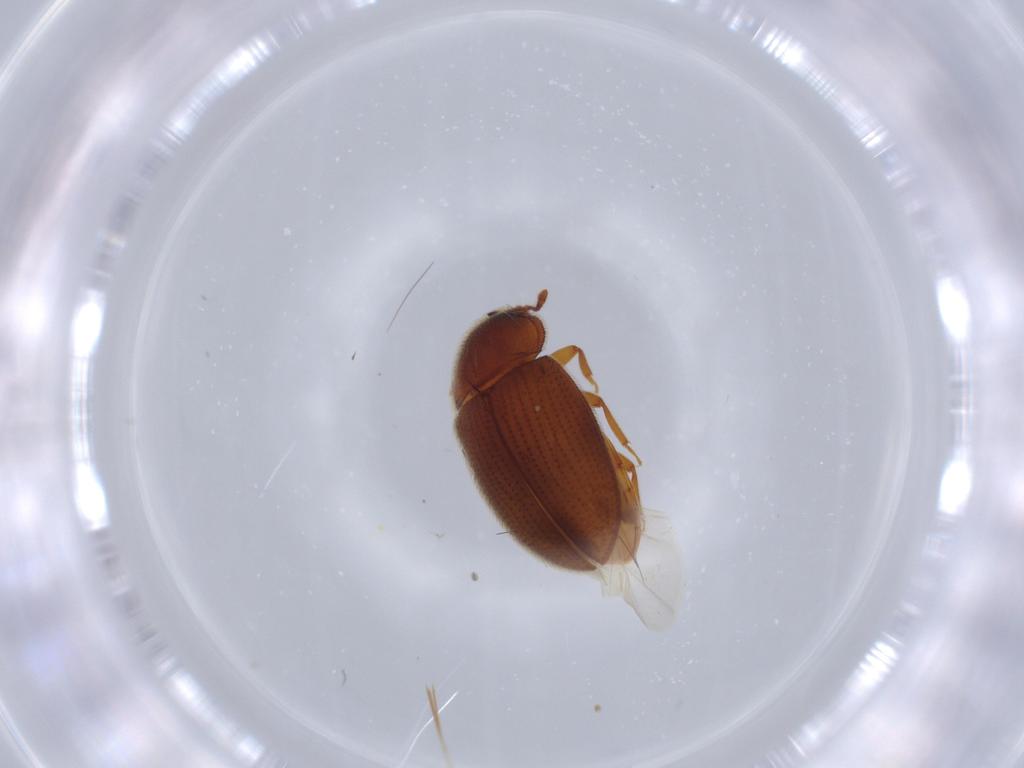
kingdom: Animalia
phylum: Arthropoda
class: Insecta
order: Coleoptera
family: Biphyllidae
